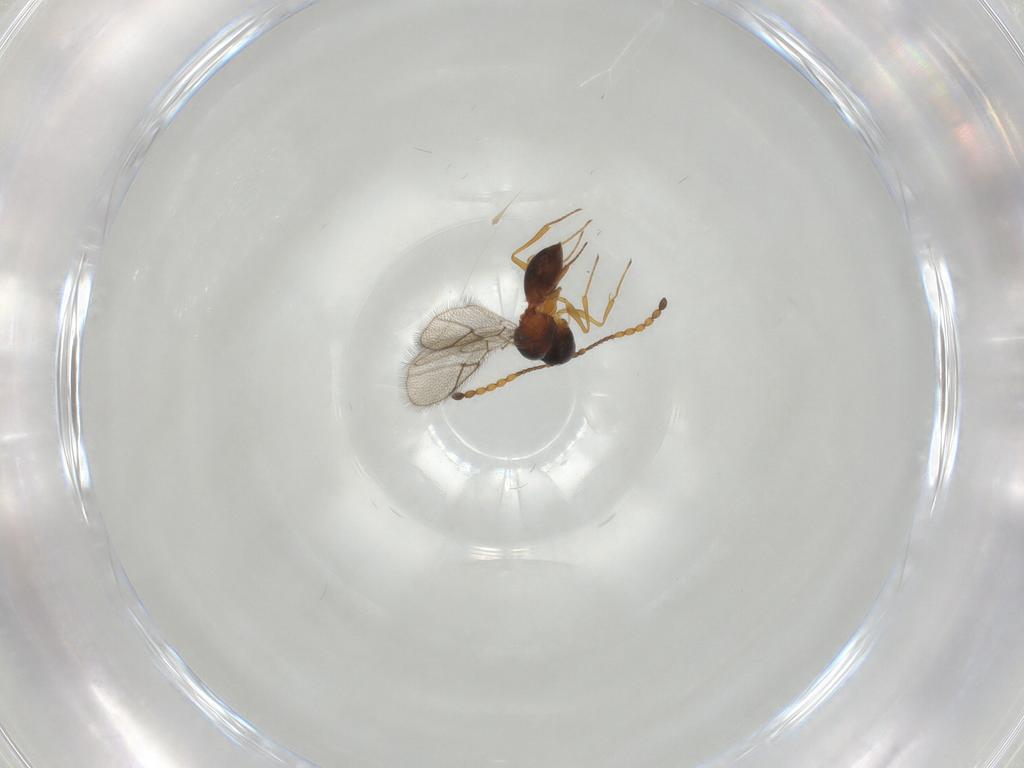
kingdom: Animalia
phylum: Arthropoda
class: Insecta
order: Hymenoptera
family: Figitidae
